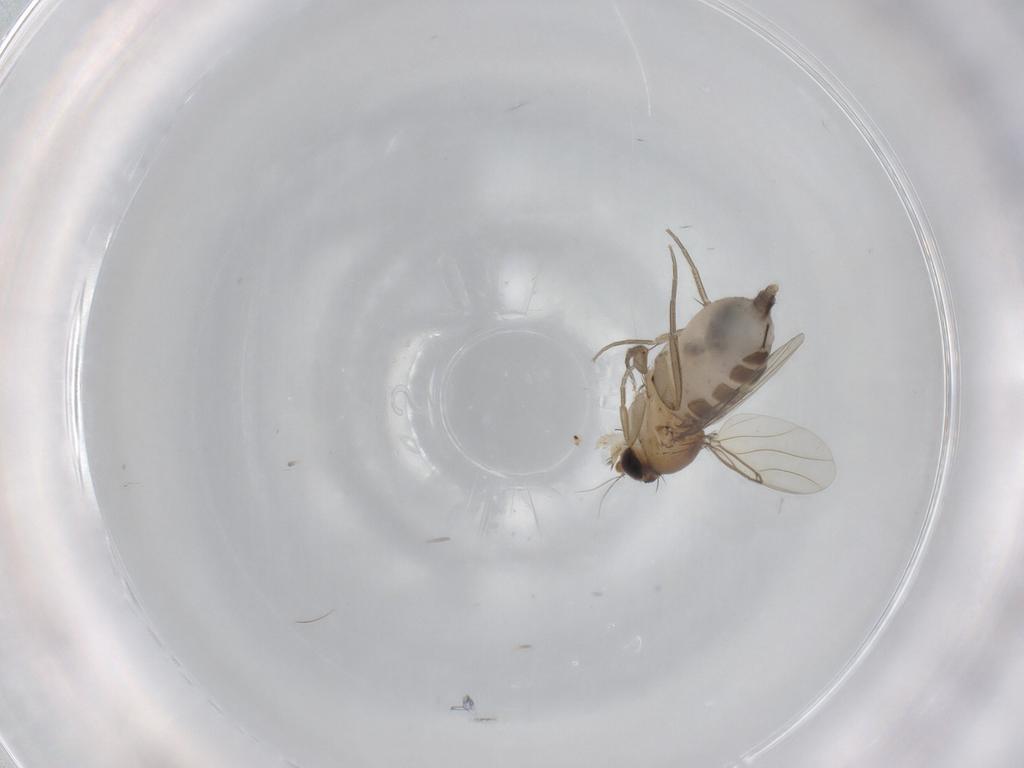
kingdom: Animalia
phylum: Arthropoda
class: Insecta
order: Diptera
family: Phoridae
